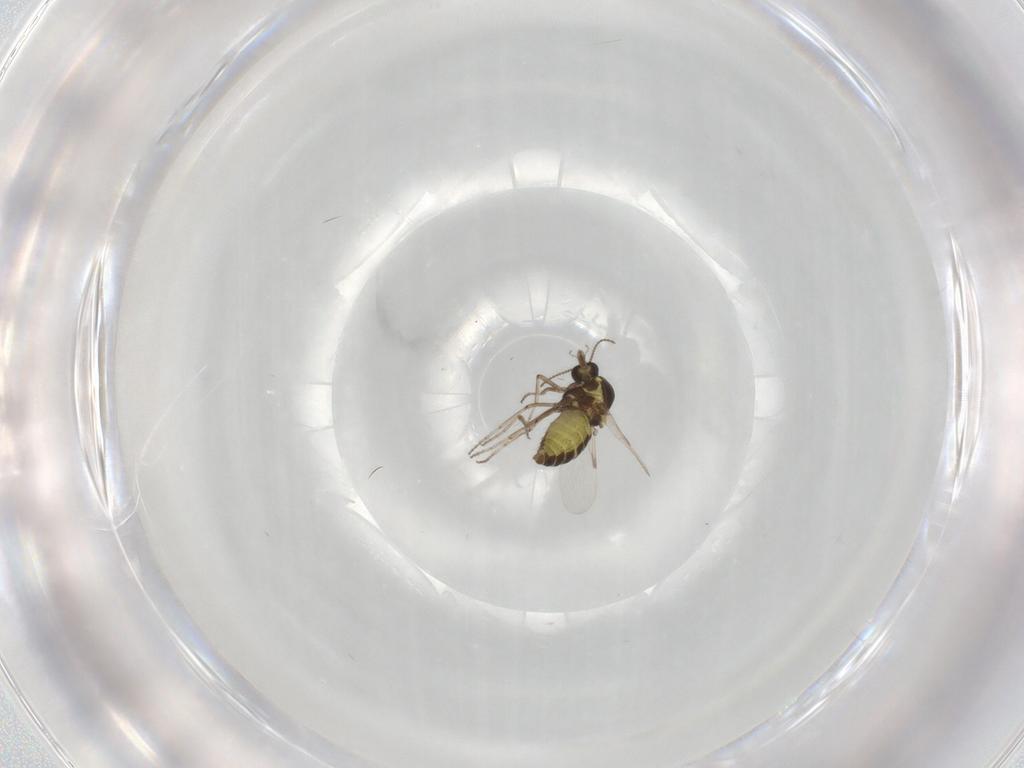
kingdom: Animalia
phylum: Arthropoda
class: Insecta
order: Diptera
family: Ceratopogonidae
